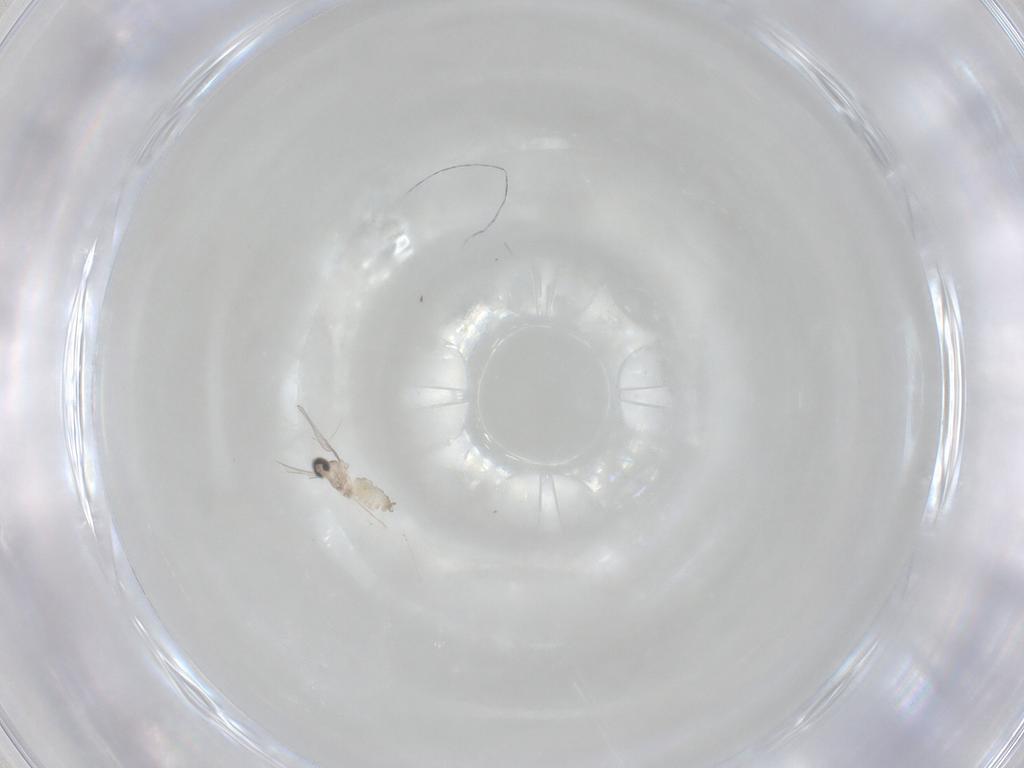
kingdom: Animalia
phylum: Arthropoda
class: Insecta
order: Diptera
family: Cecidomyiidae
